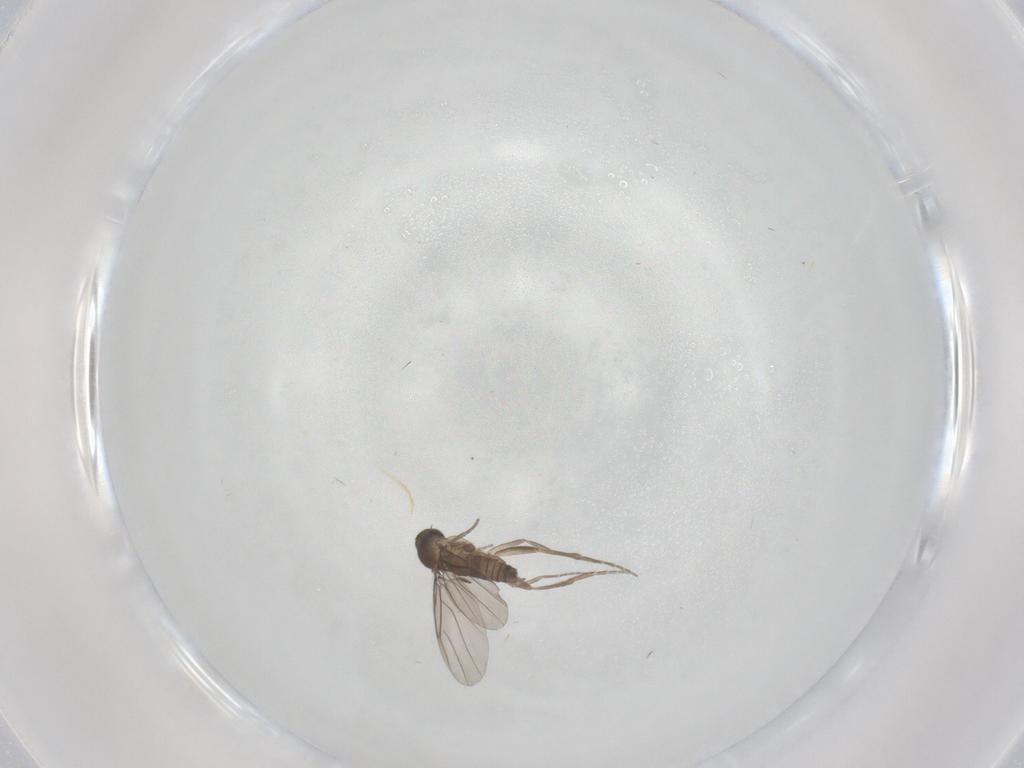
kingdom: Animalia
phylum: Arthropoda
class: Insecta
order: Diptera
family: Phoridae
